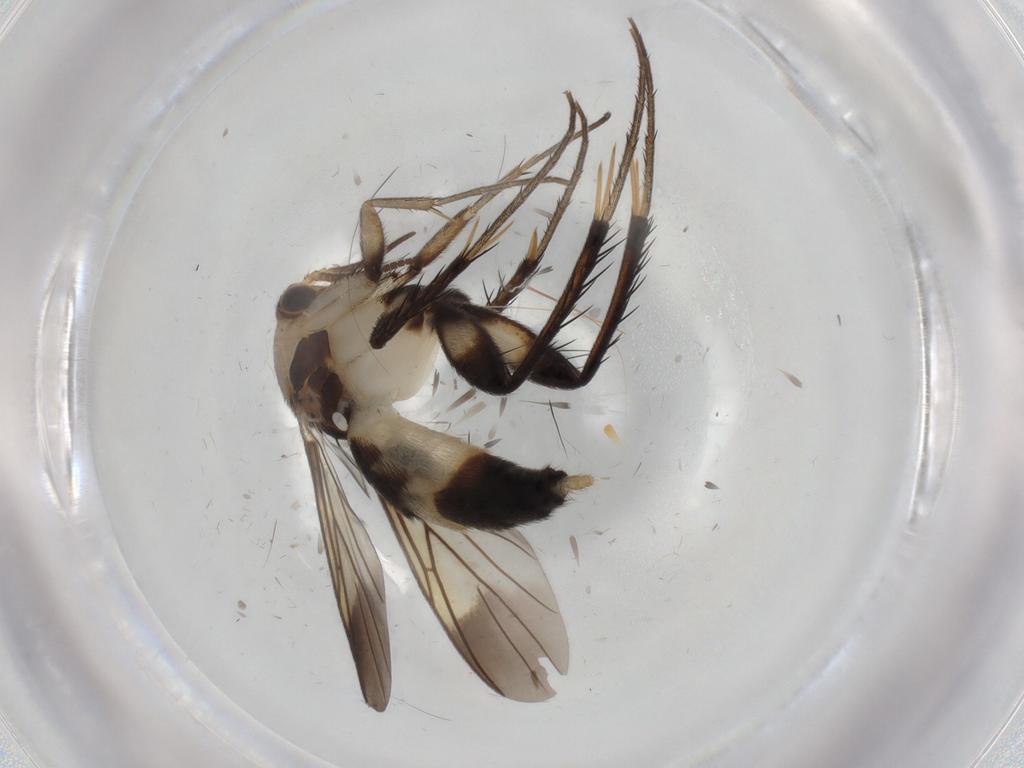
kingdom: Animalia
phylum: Arthropoda
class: Insecta
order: Diptera
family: Mycetophilidae
